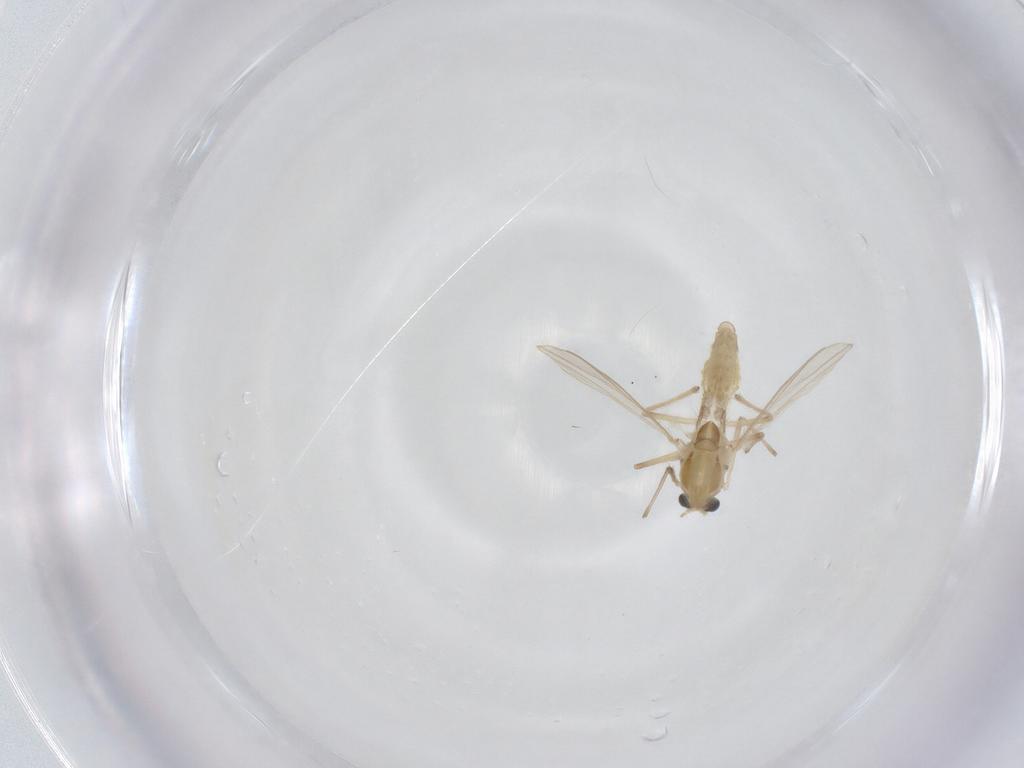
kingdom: Animalia
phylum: Arthropoda
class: Insecta
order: Diptera
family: Chironomidae
